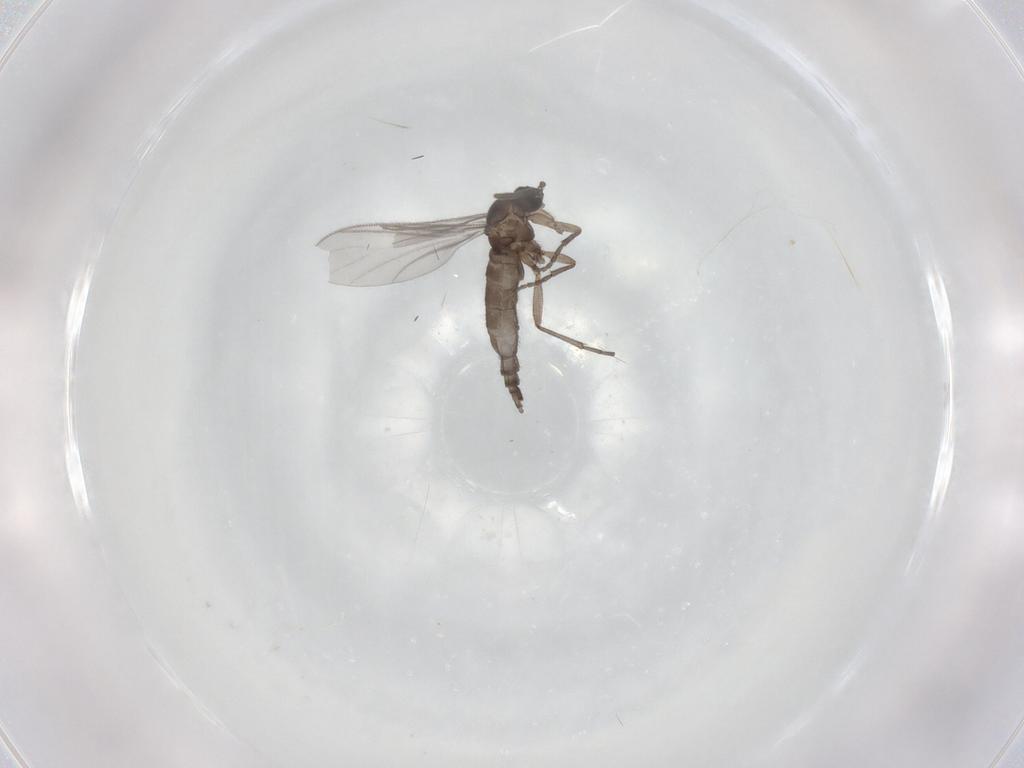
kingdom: Animalia
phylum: Arthropoda
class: Insecta
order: Diptera
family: Sciaridae
